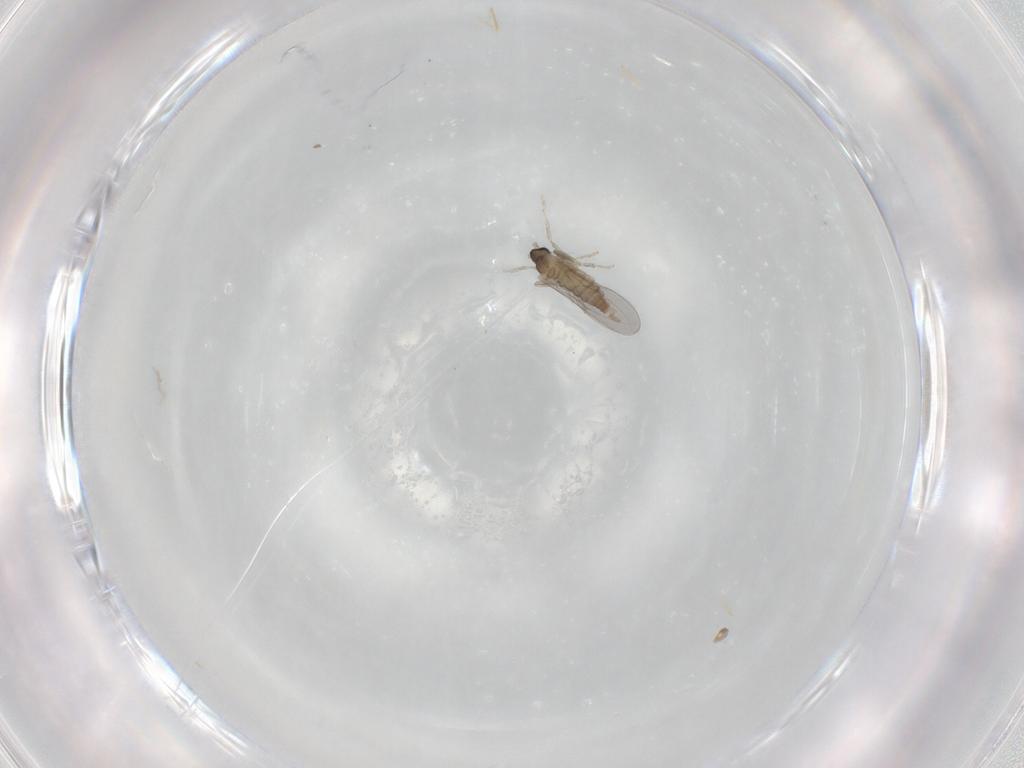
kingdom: Animalia
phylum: Arthropoda
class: Insecta
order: Diptera
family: Cecidomyiidae
